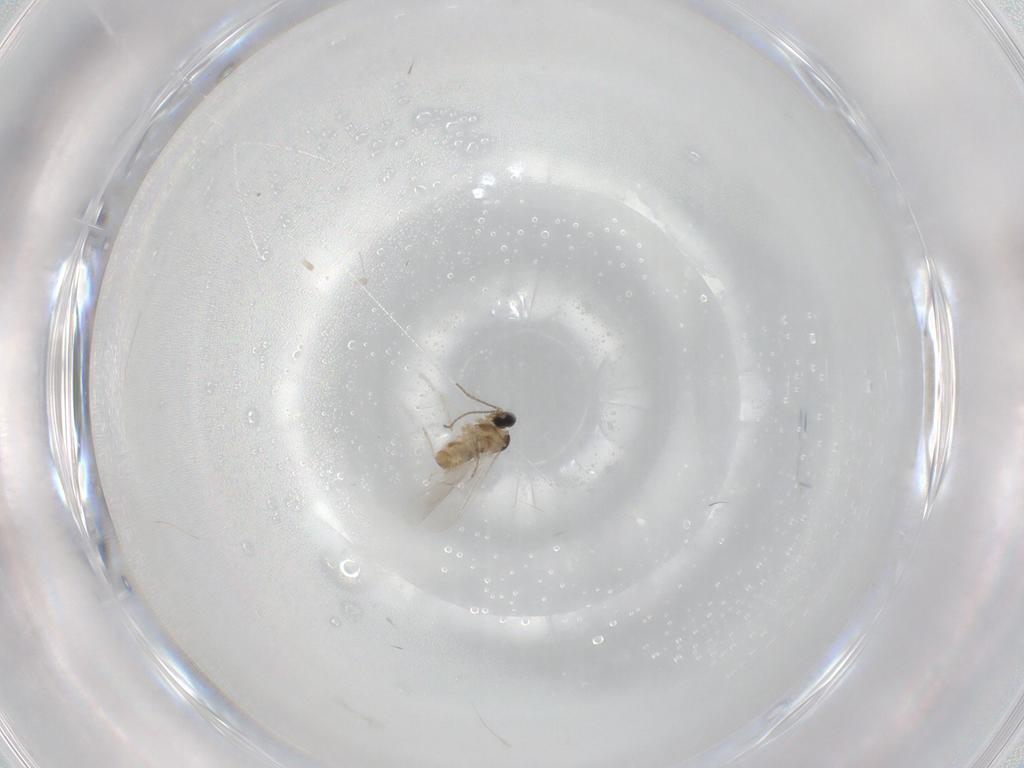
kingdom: Animalia
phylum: Arthropoda
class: Insecta
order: Diptera
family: Cecidomyiidae
